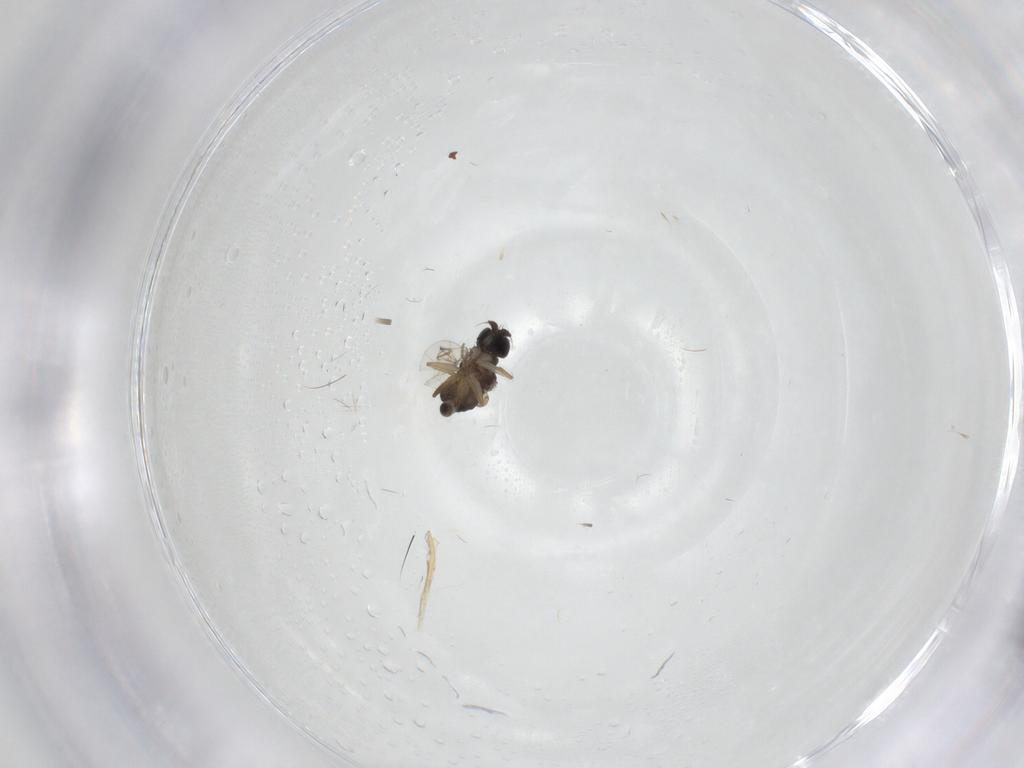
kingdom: Animalia
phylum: Arthropoda
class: Insecta
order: Diptera
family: Phoridae
